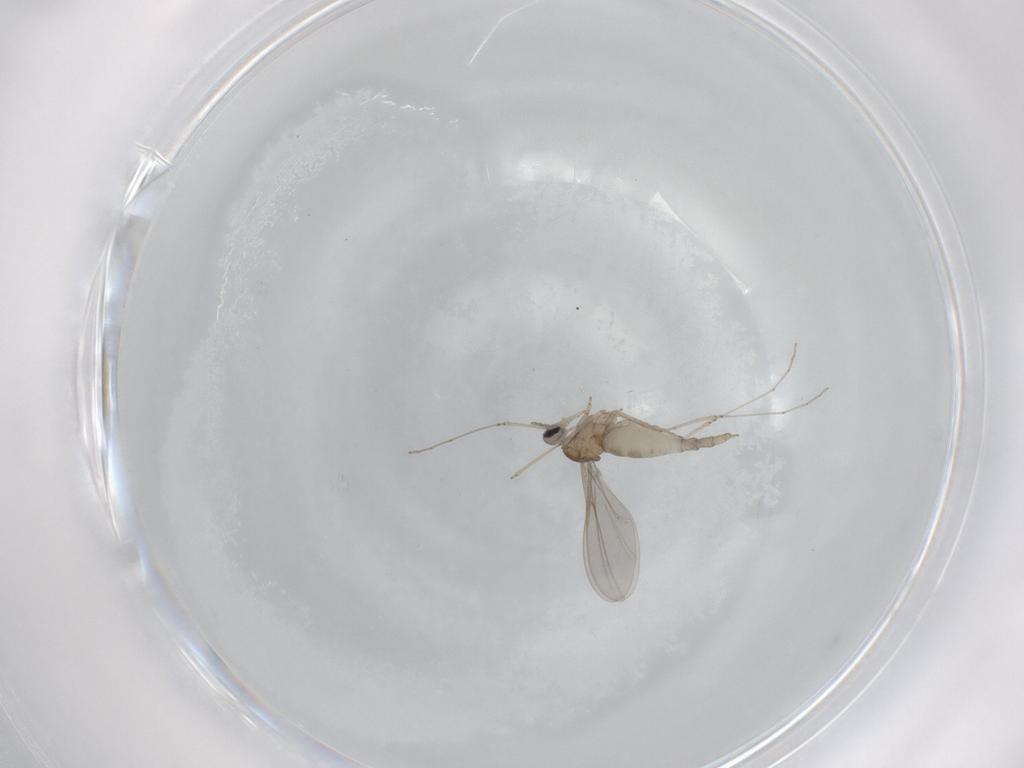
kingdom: Animalia
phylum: Arthropoda
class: Insecta
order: Diptera
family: Cecidomyiidae
